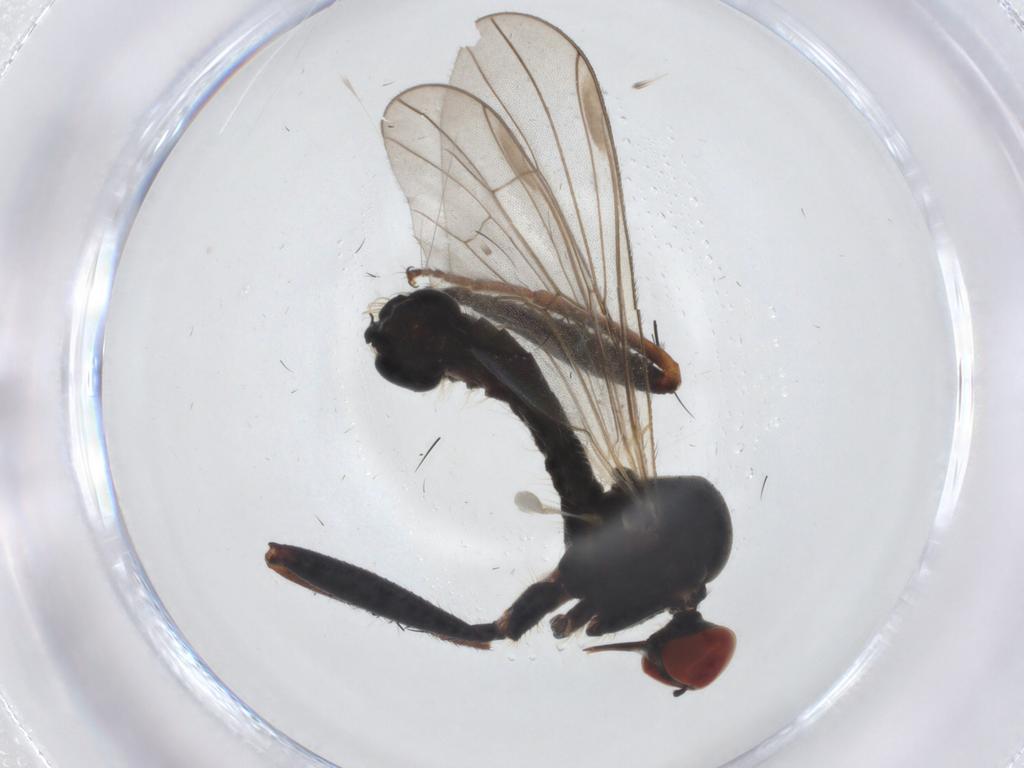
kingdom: Animalia
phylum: Arthropoda
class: Insecta
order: Diptera
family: Hybotidae
